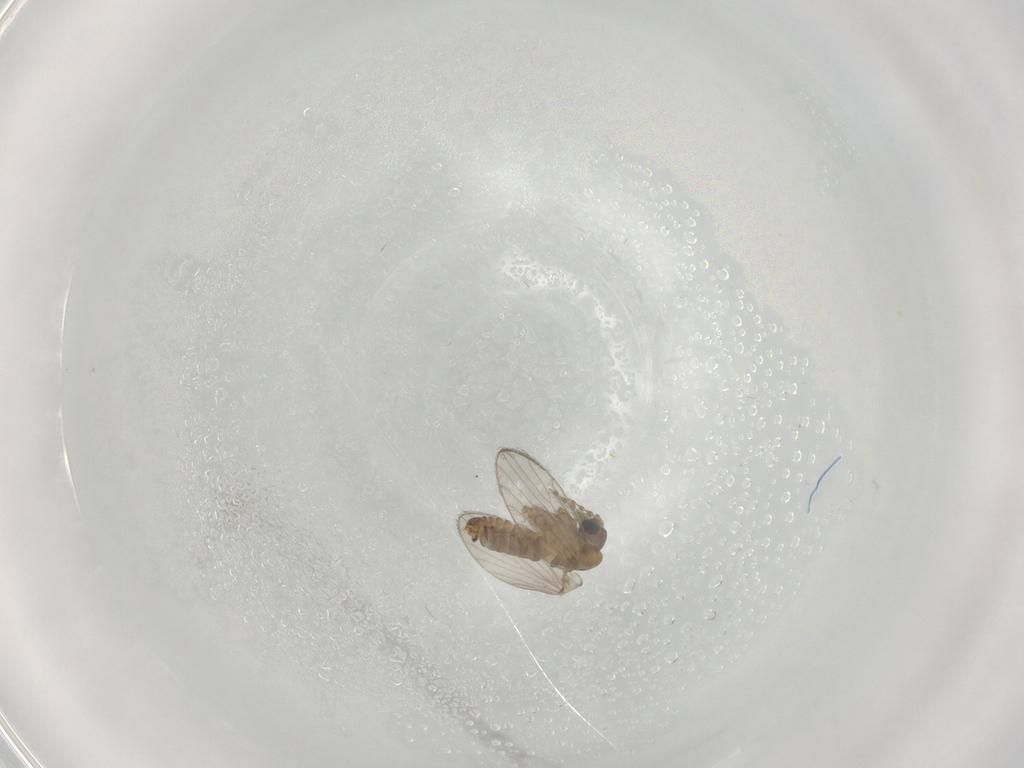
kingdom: Animalia
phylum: Arthropoda
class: Insecta
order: Diptera
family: Psychodidae
